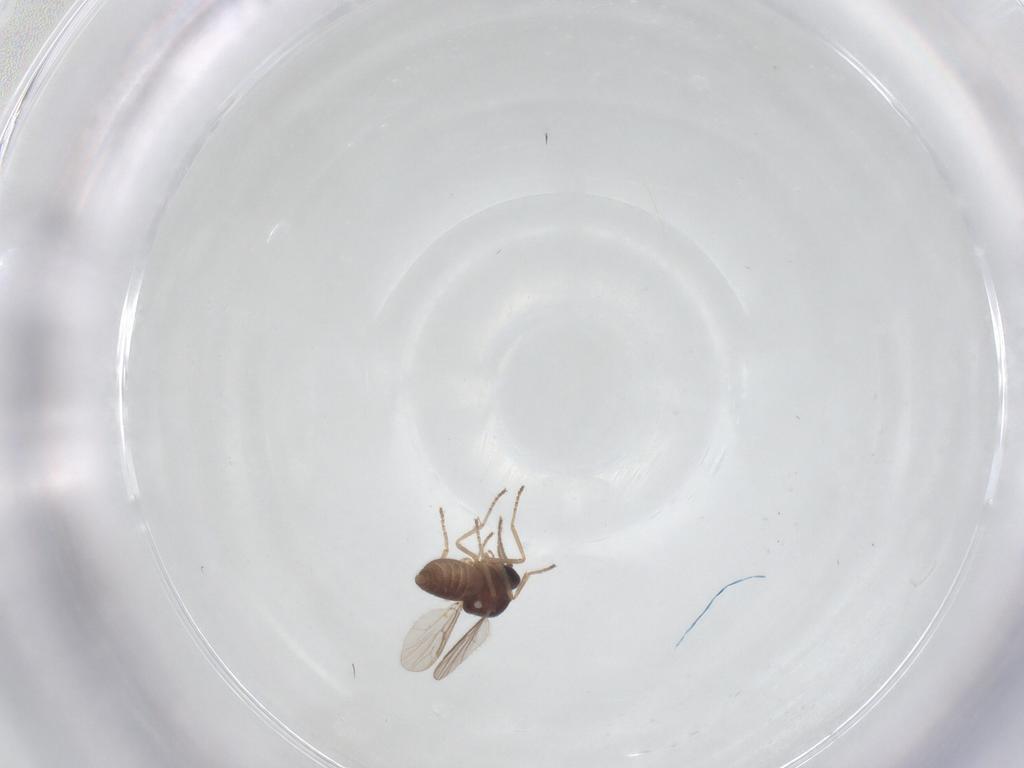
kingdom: Animalia
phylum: Arthropoda
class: Insecta
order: Diptera
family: Ceratopogonidae
